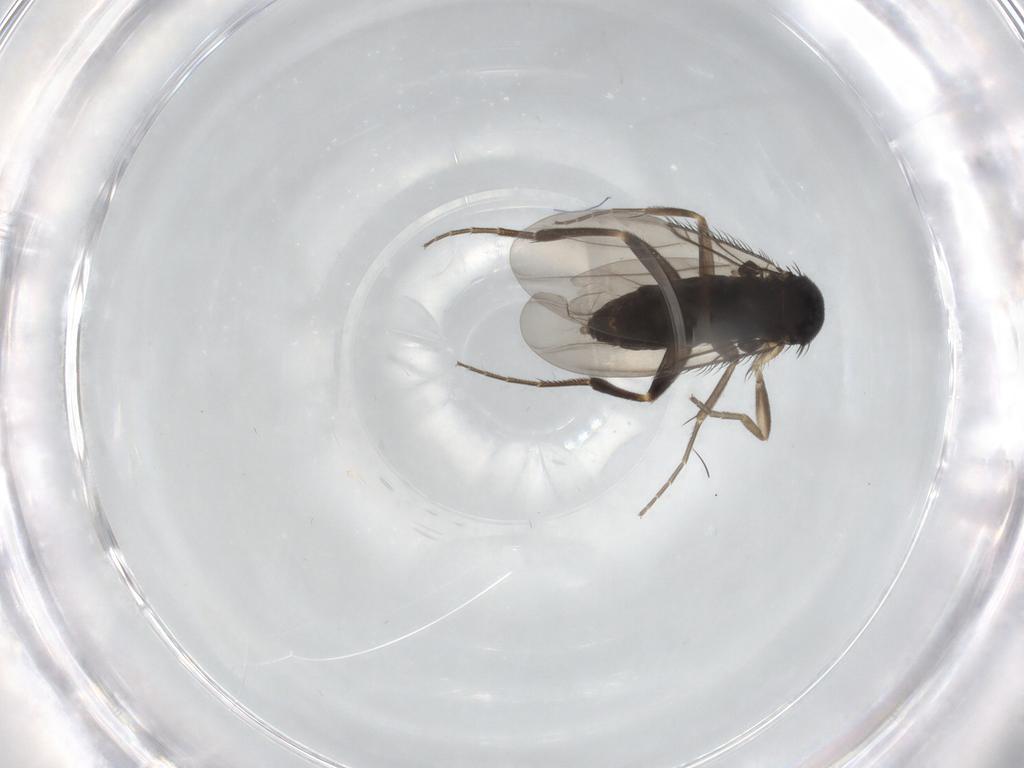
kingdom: Animalia
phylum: Arthropoda
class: Insecta
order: Diptera
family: Phoridae
